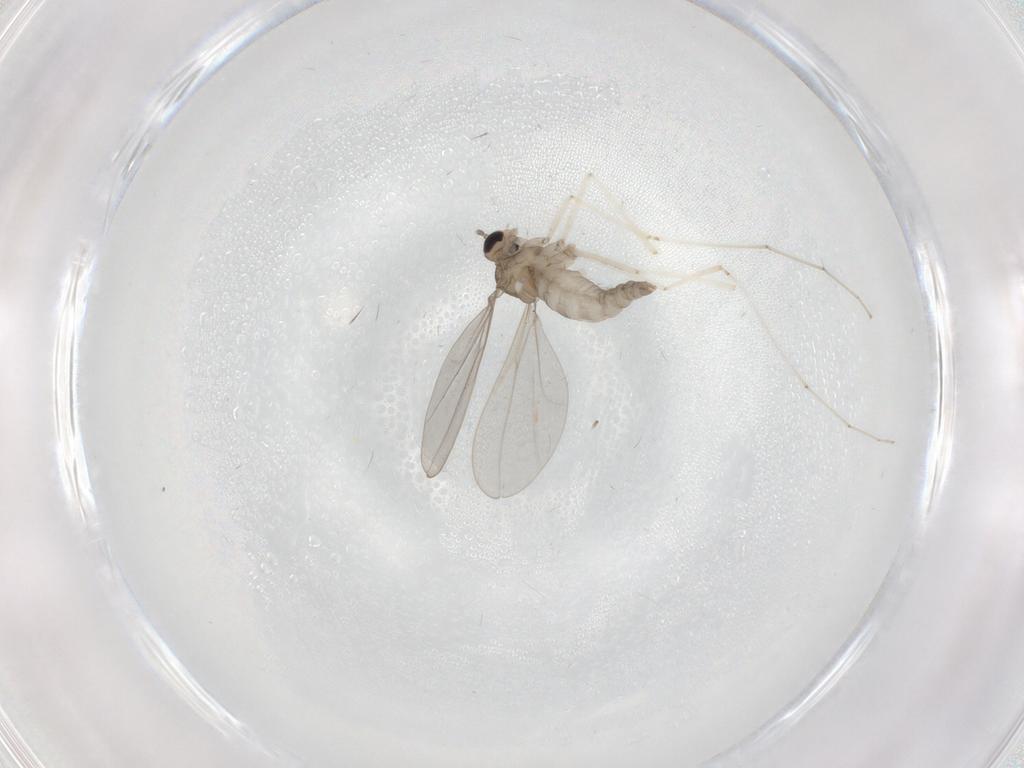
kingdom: Animalia
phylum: Arthropoda
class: Insecta
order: Diptera
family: Cecidomyiidae
